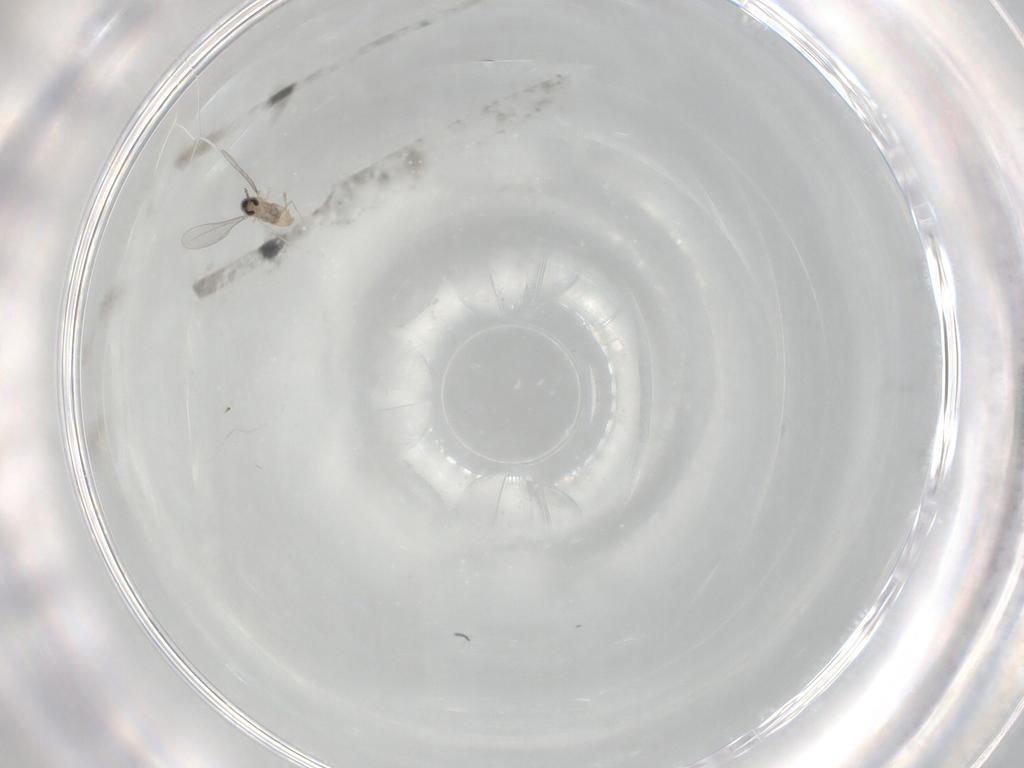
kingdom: Animalia
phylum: Arthropoda
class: Insecta
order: Diptera
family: Cecidomyiidae
